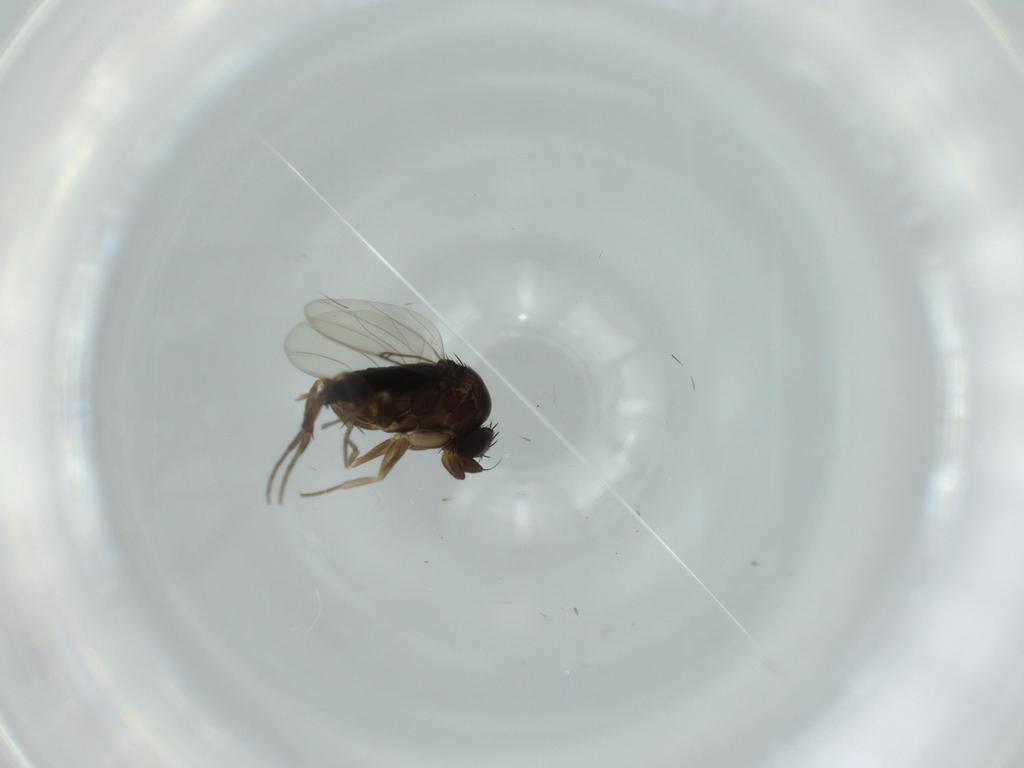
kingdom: Animalia
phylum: Arthropoda
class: Insecta
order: Diptera
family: Phoridae
